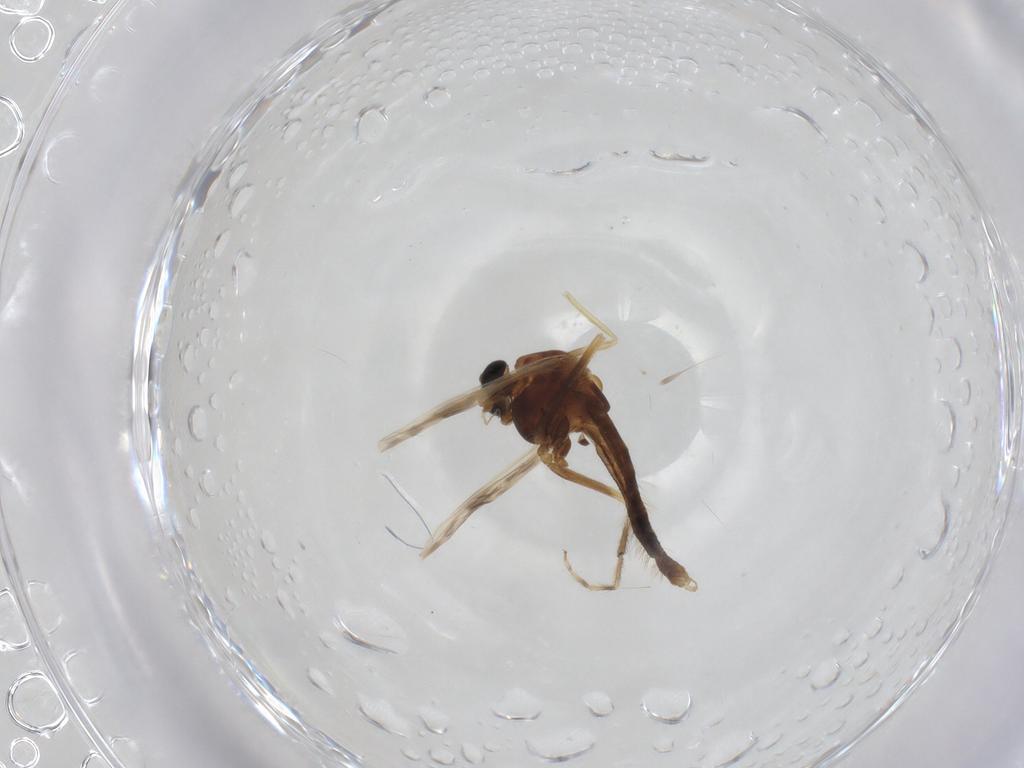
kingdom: Animalia
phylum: Arthropoda
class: Insecta
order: Diptera
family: Chironomidae
